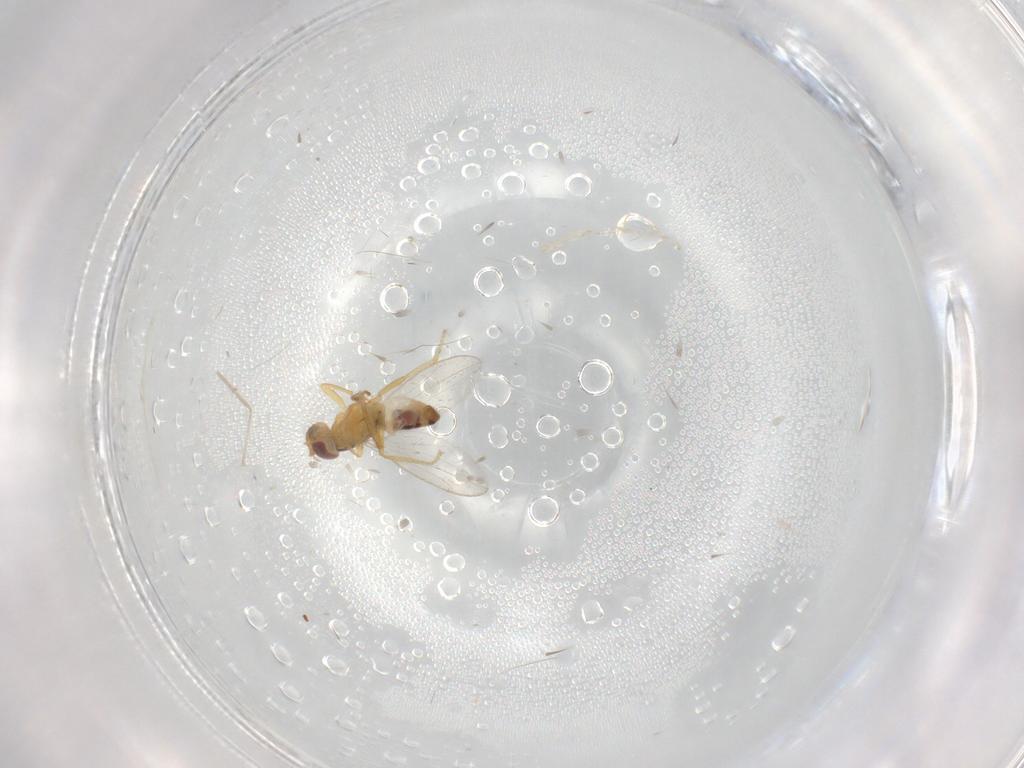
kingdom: Animalia
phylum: Arthropoda
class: Insecta
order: Diptera
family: Periscelididae
